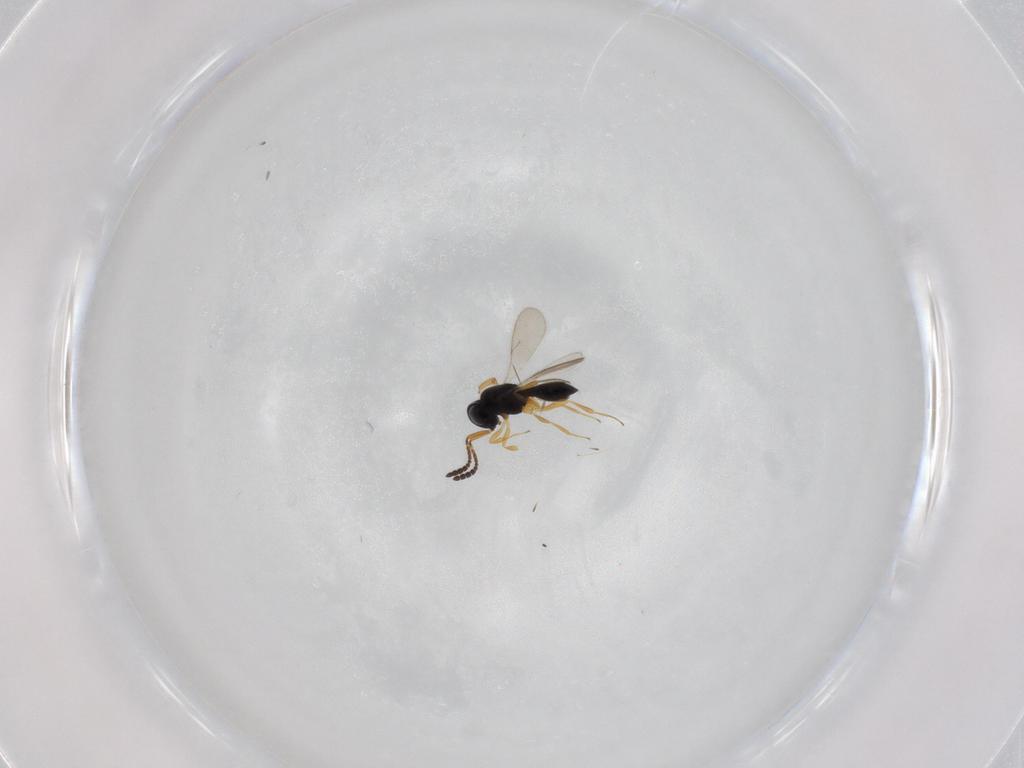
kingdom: Animalia
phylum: Arthropoda
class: Insecta
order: Hymenoptera
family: Scelionidae
